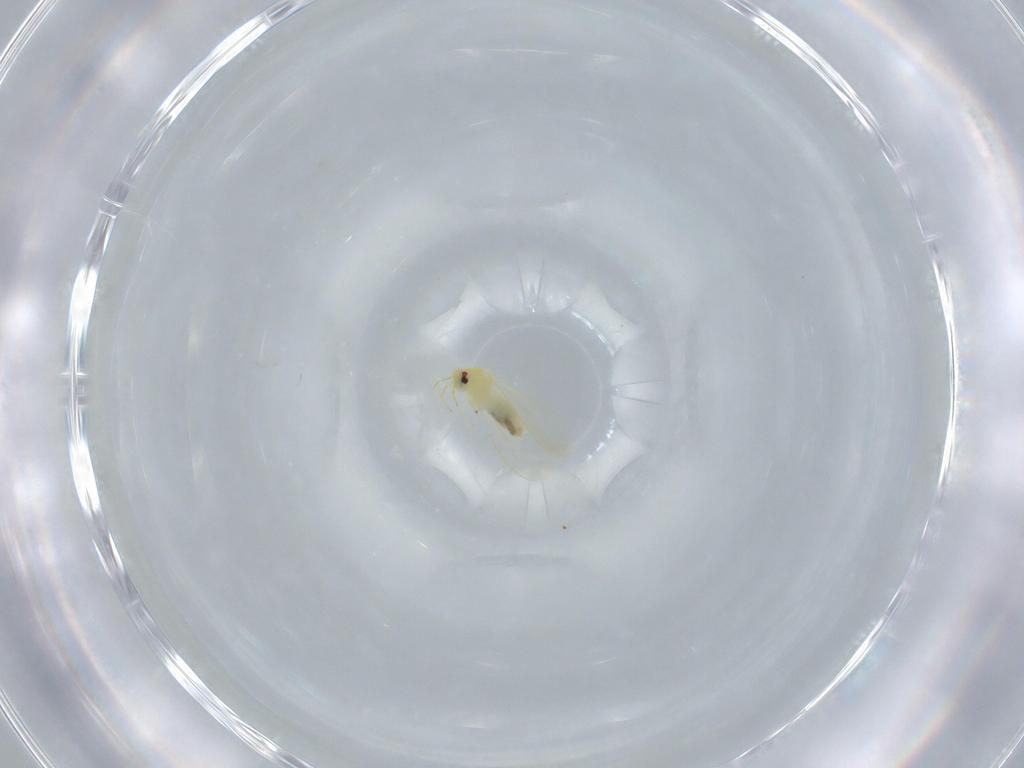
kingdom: Animalia
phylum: Arthropoda
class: Insecta
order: Hemiptera
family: Aleyrodidae
